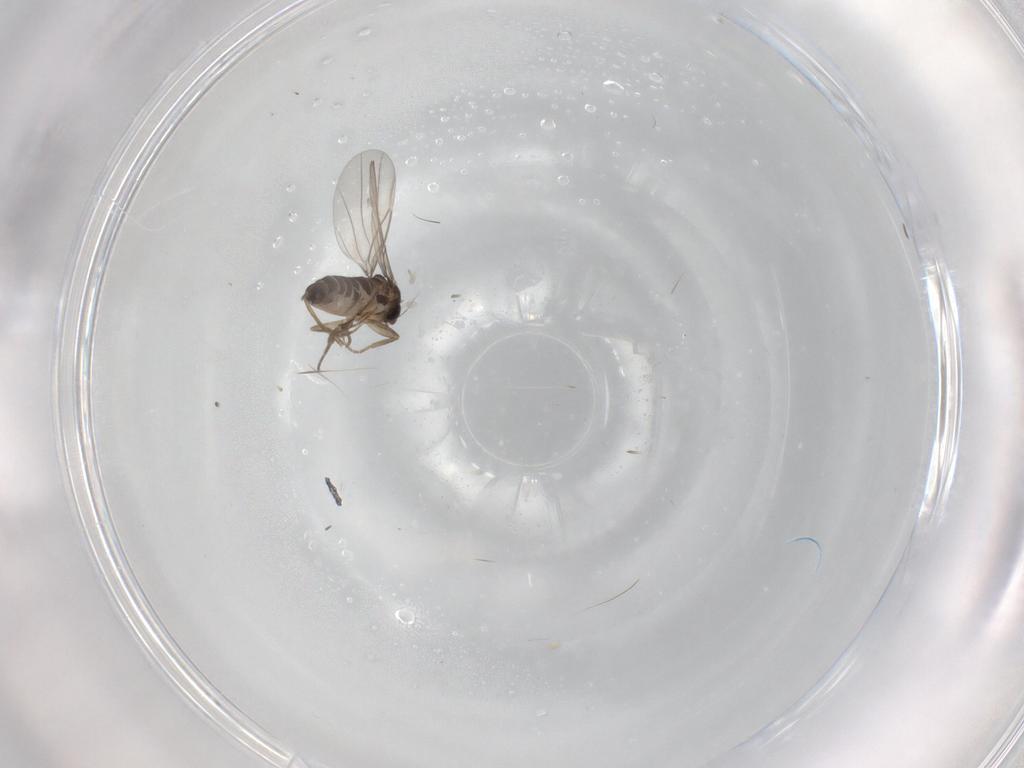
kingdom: Animalia
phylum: Arthropoda
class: Insecta
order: Diptera
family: Phoridae
